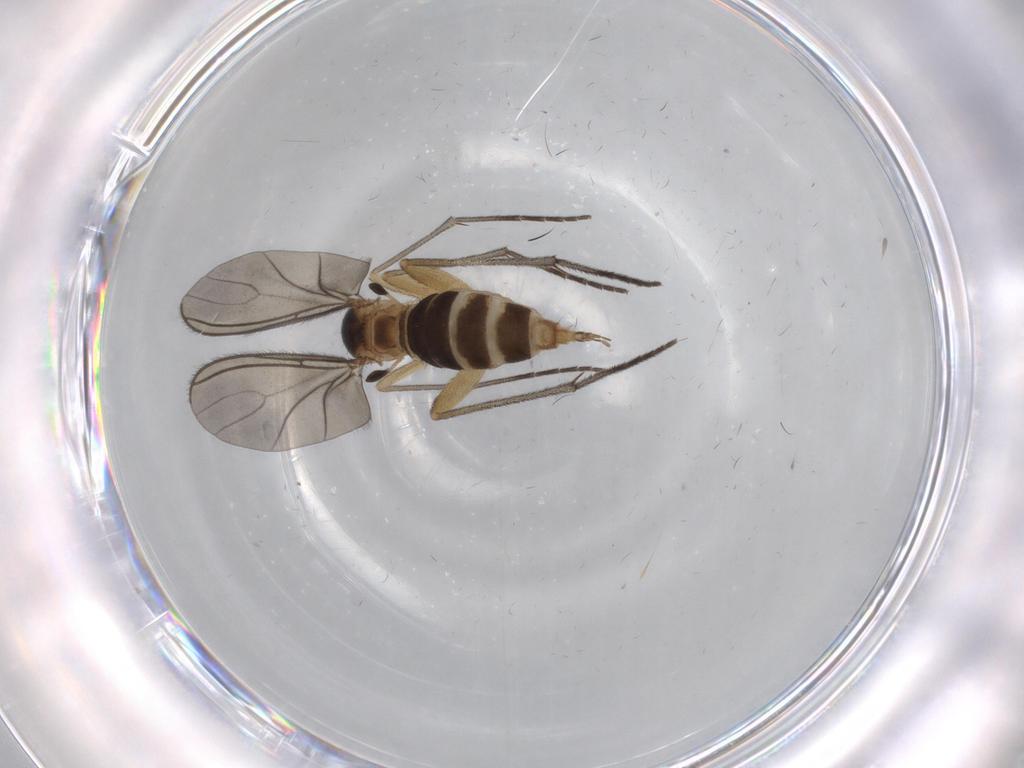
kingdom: Animalia
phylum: Arthropoda
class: Insecta
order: Diptera
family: Sciaridae
